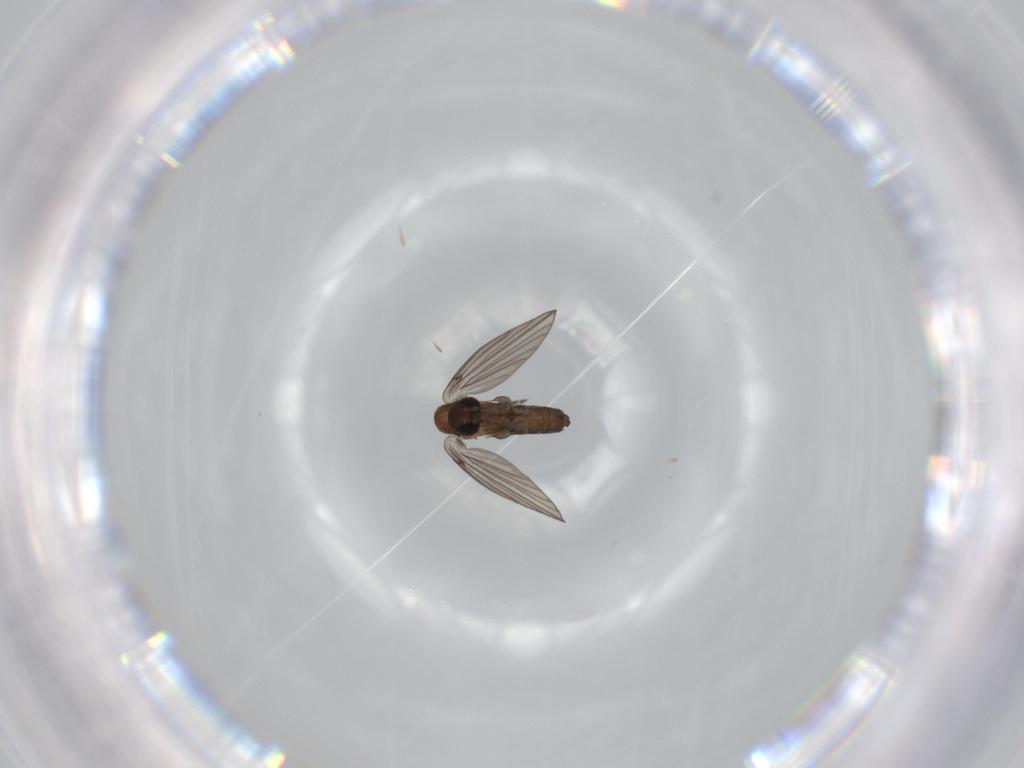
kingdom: Animalia
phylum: Arthropoda
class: Insecta
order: Diptera
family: Psychodidae
